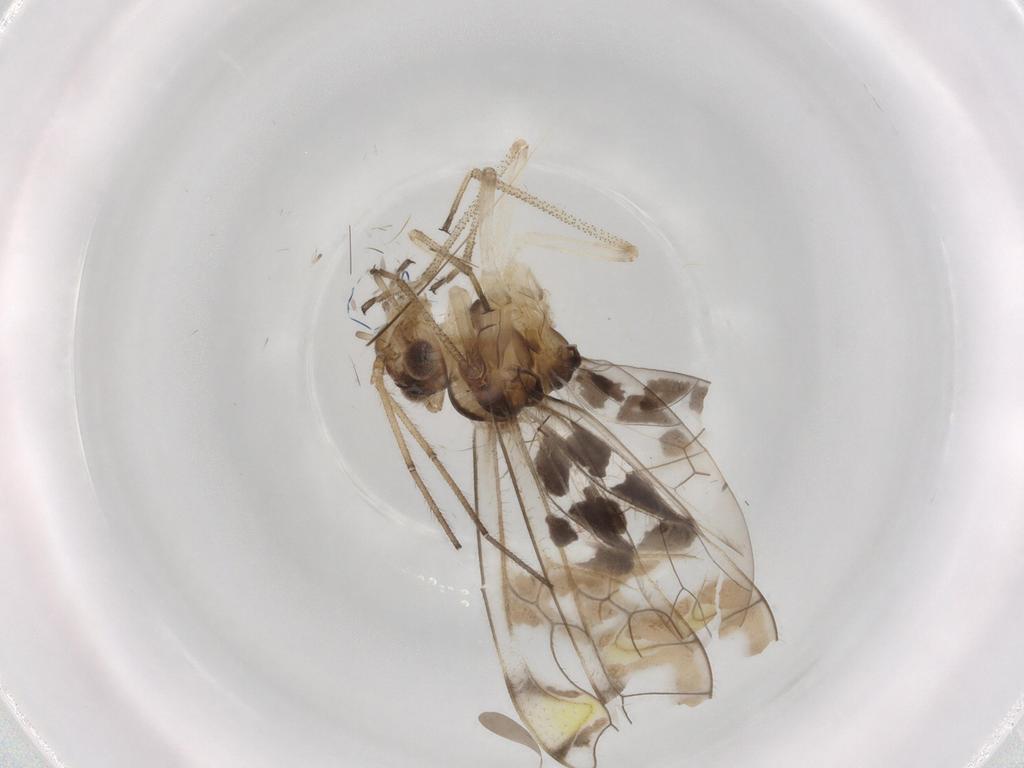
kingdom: Animalia
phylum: Arthropoda
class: Insecta
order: Psocodea
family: Amphipsocidae
